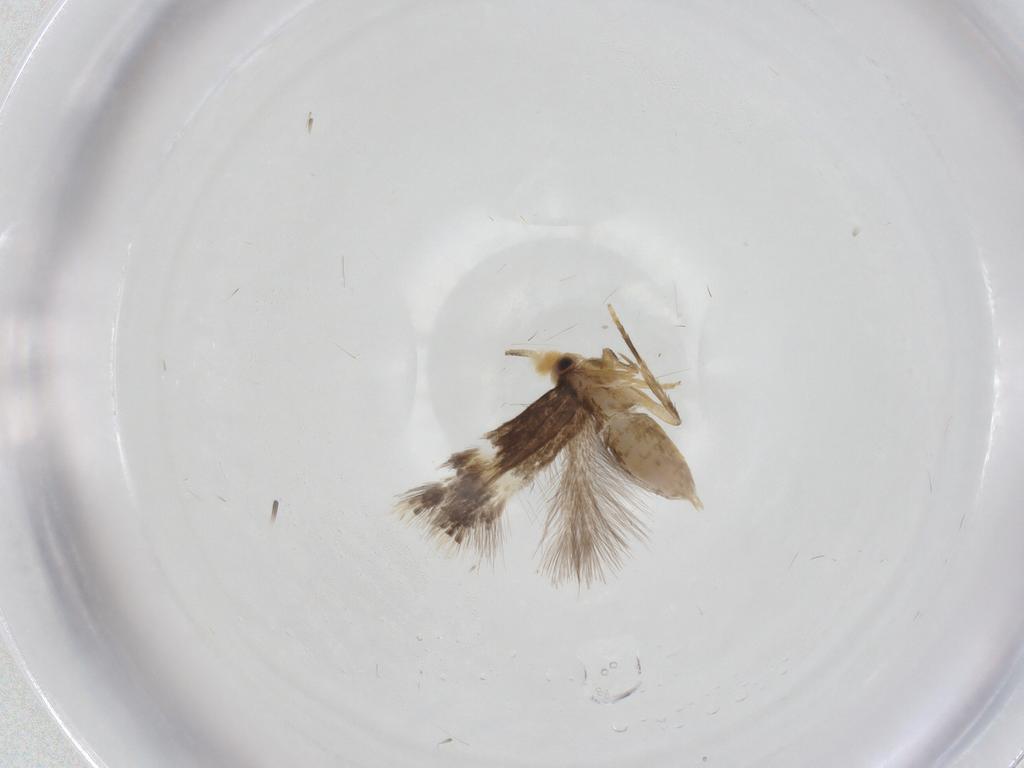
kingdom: Animalia
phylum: Arthropoda
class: Insecta
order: Lepidoptera
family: Nepticulidae
